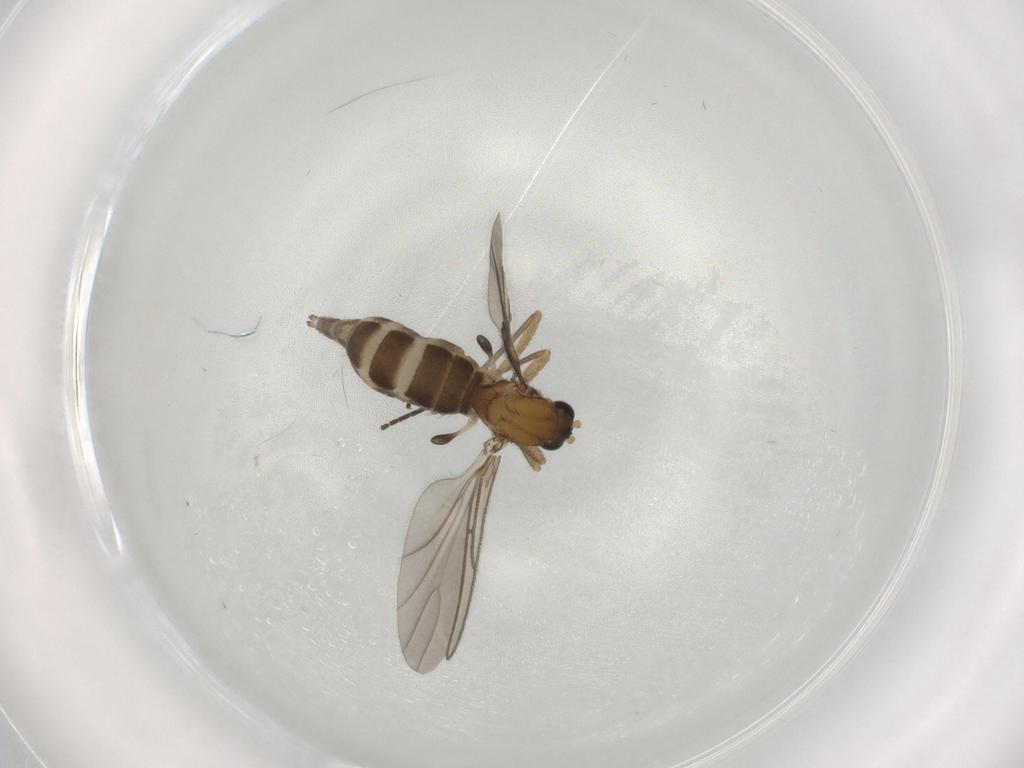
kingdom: Animalia
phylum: Arthropoda
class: Insecta
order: Diptera
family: Sciaridae
